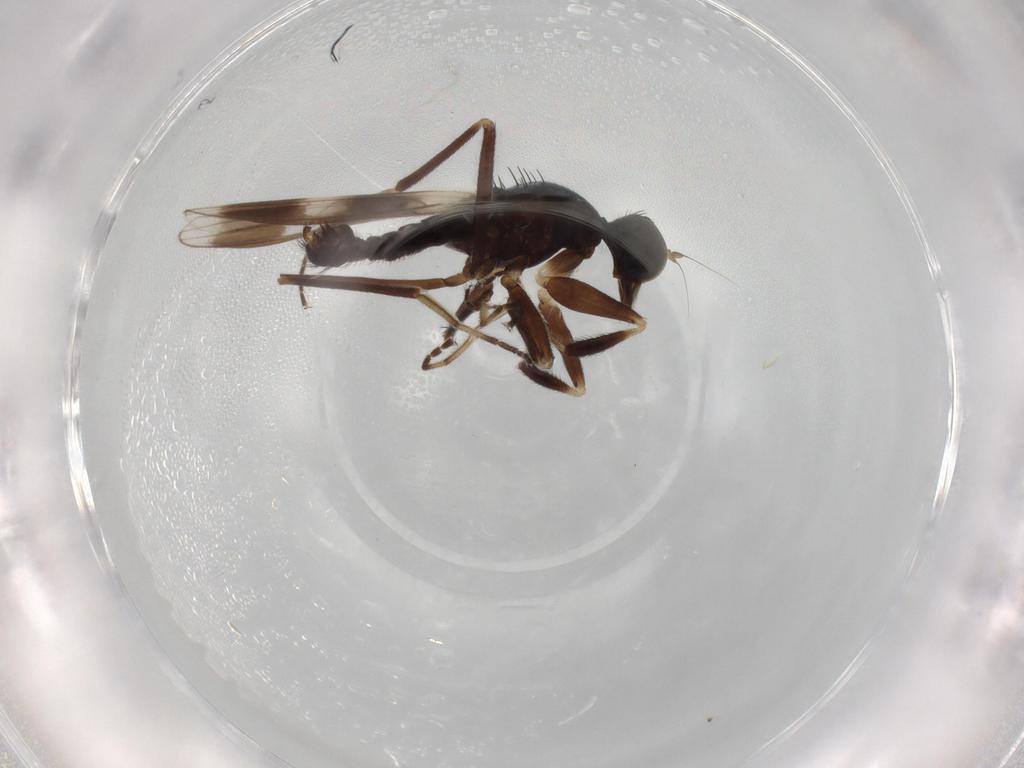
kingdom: Animalia
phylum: Arthropoda
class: Insecta
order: Diptera
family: Hybotidae
